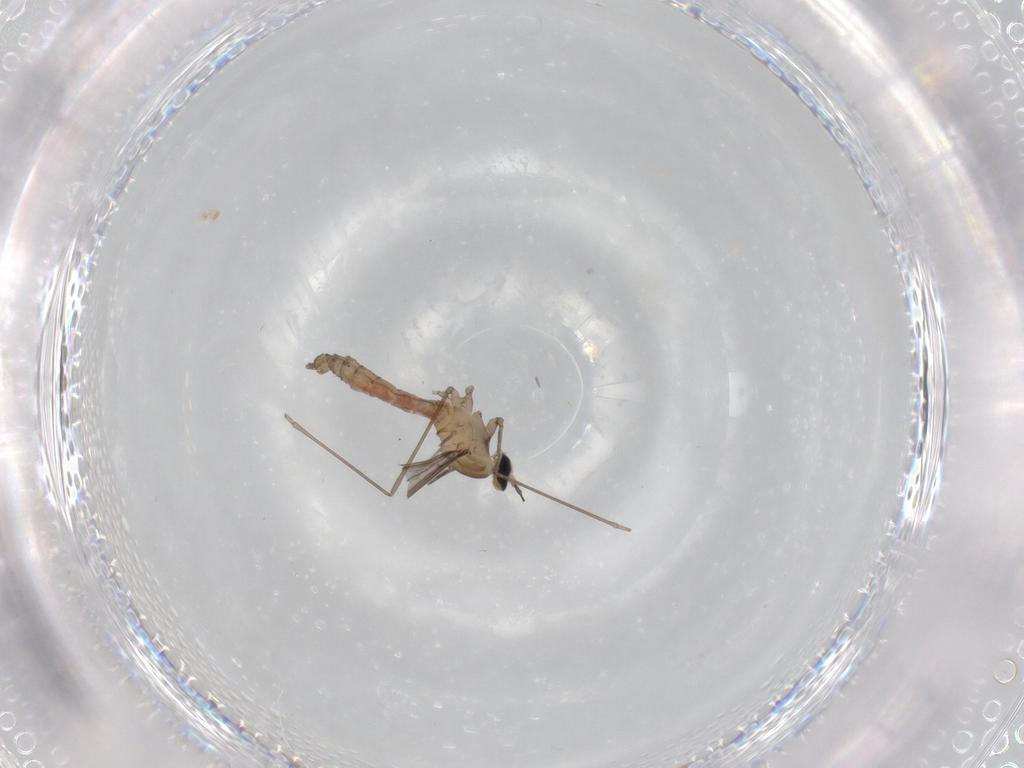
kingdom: Animalia
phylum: Arthropoda
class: Insecta
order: Diptera
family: Cecidomyiidae
